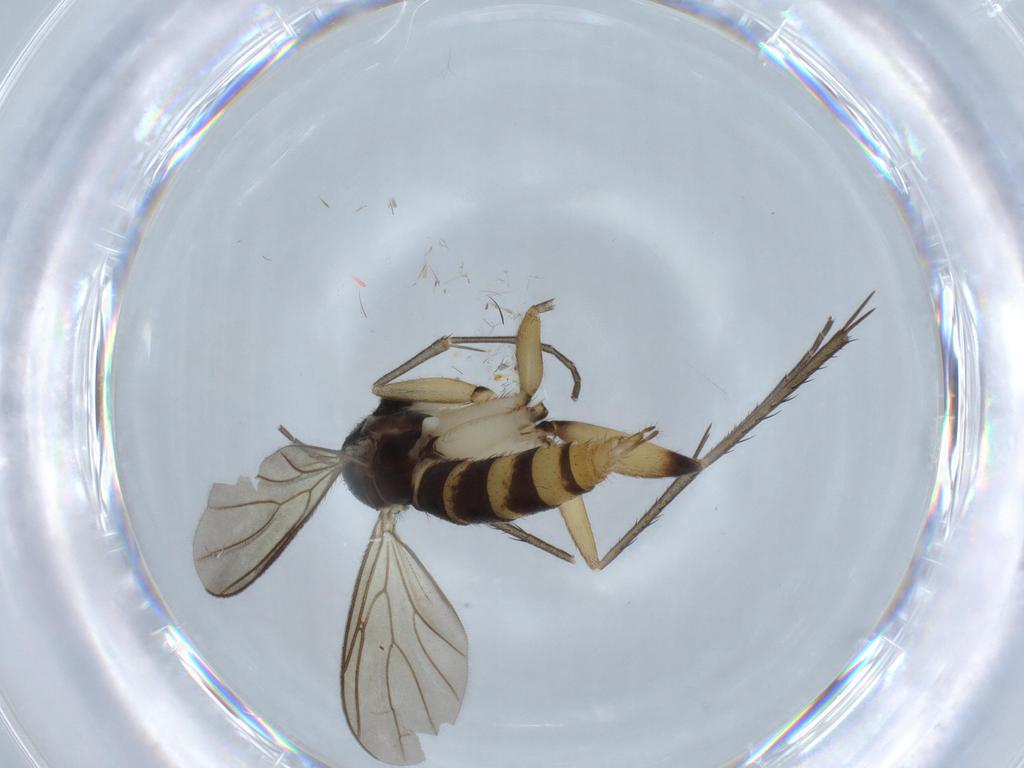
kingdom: Animalia
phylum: Arthropoda
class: Insecta
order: Diptera
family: Phoridae
